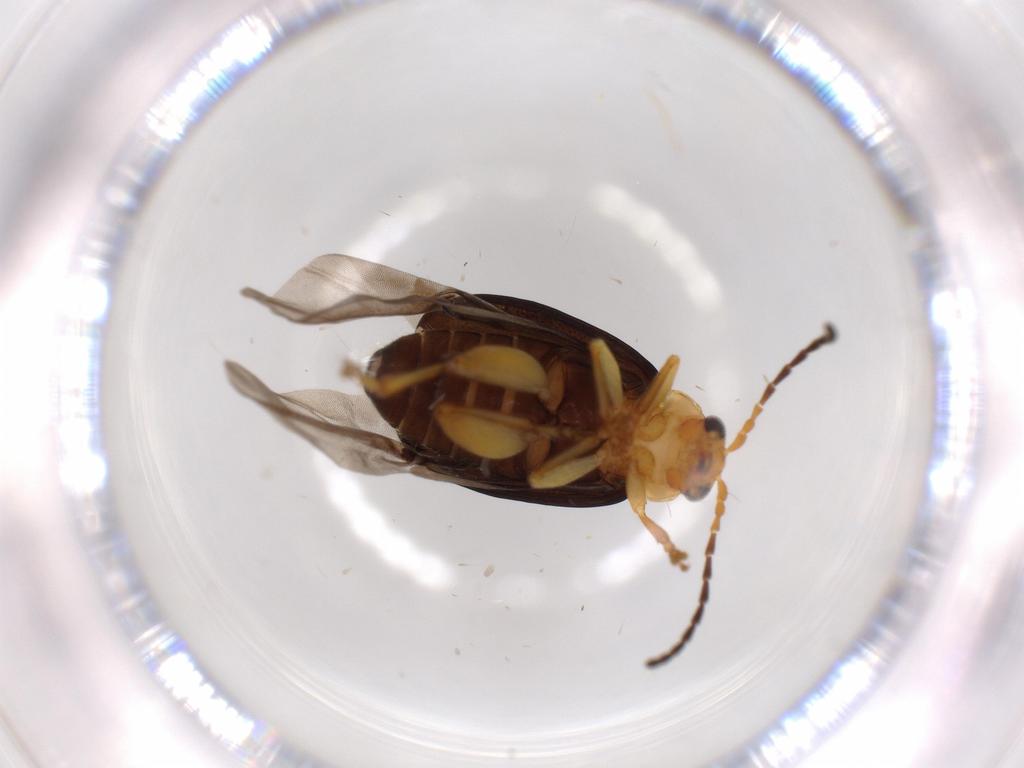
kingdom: Animalia
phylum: Arthropoda
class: Insecta
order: Coleoptera
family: Chrysomelidae
